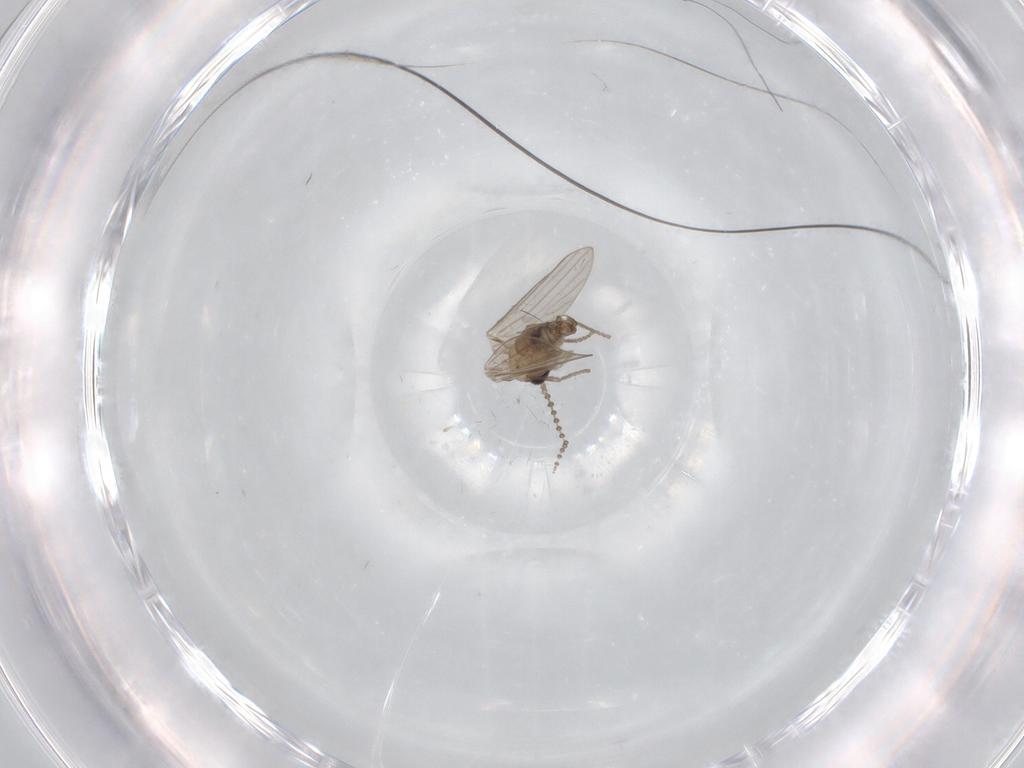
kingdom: Animalia
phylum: Arthropoda
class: Insecta
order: Diptera
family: Psychodidae
